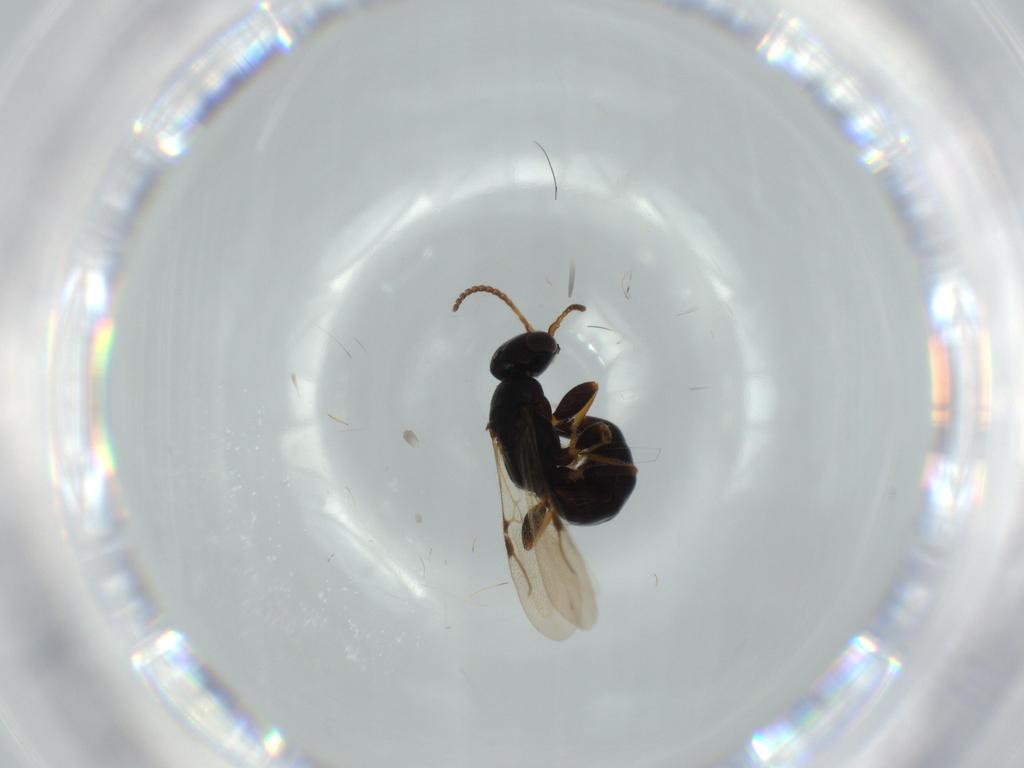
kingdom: Animalia
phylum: Arthropoda
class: Insecta
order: Hymenoptera
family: Bethylidae
